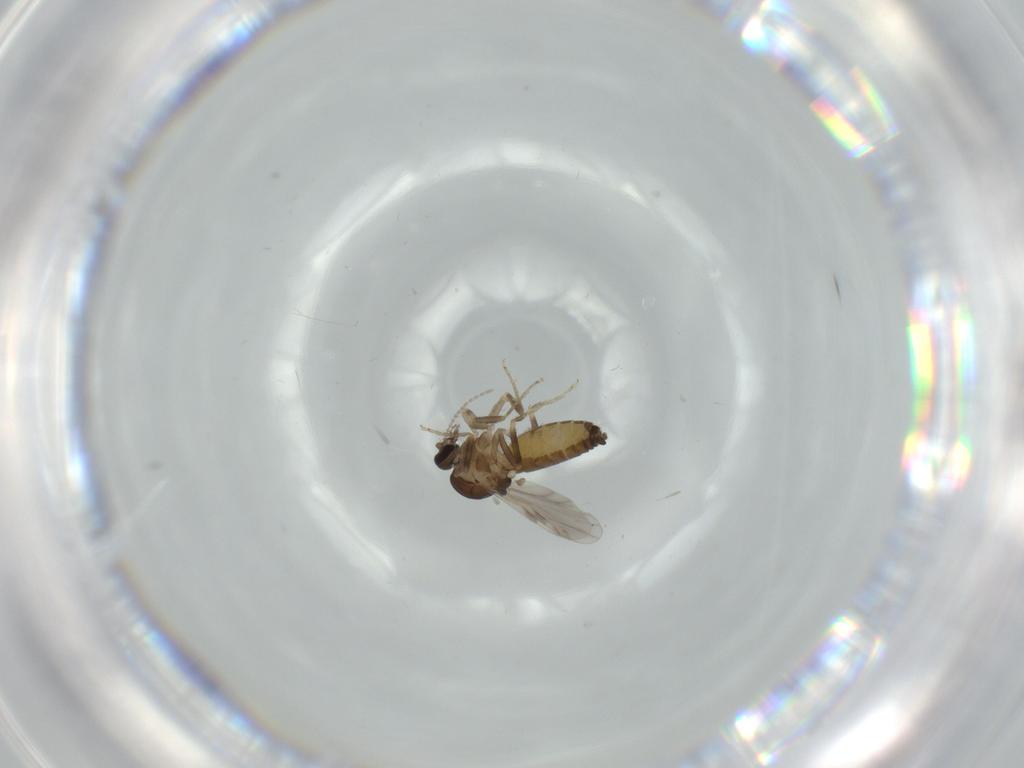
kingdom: Animalia
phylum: Arthropoda
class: Insecta
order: Diptera
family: Ceratopogonidae
